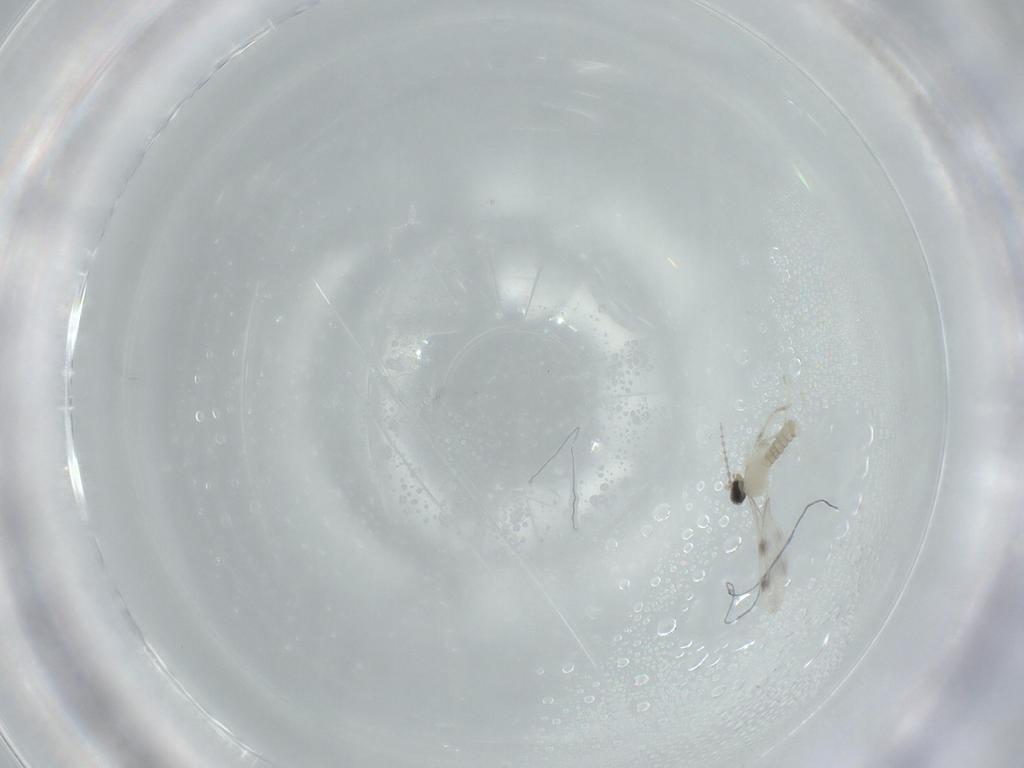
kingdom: Animalia
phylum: Arthropoda
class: Insecta
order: Diptera
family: Cecidomyiidae
